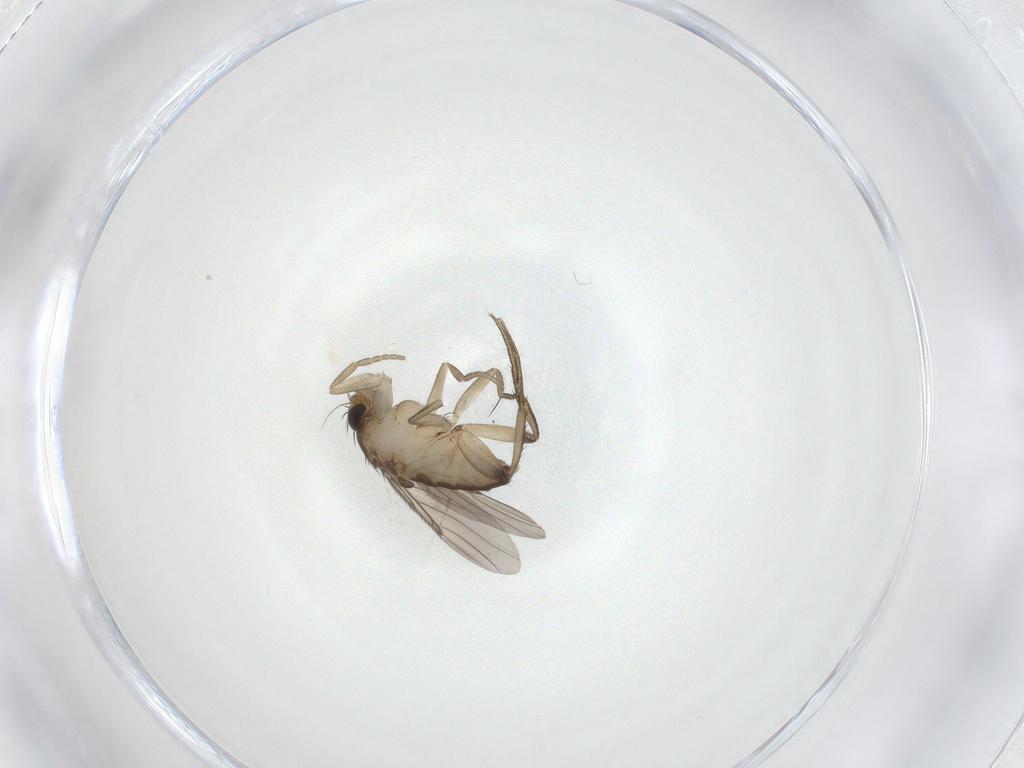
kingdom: Animalia
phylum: Arthropoda
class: Insecta
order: Diptera
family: Phoridae
